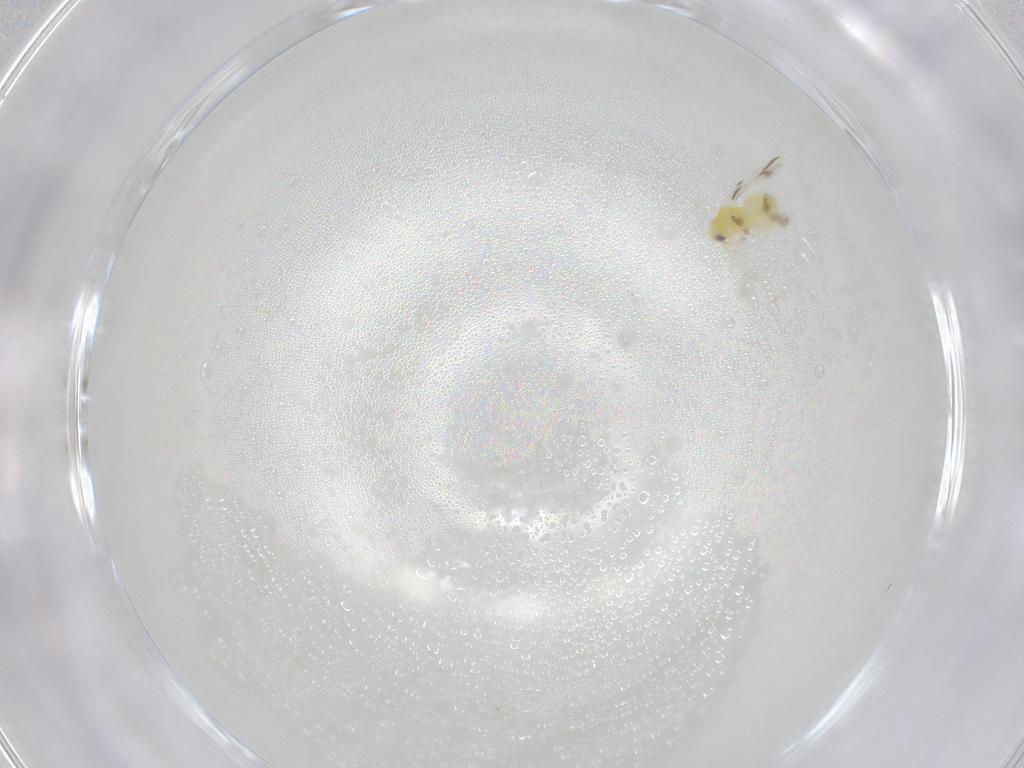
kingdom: Animalia
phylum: Arthropoda
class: Insecta
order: Hemiptera
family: Aleyrodidae
